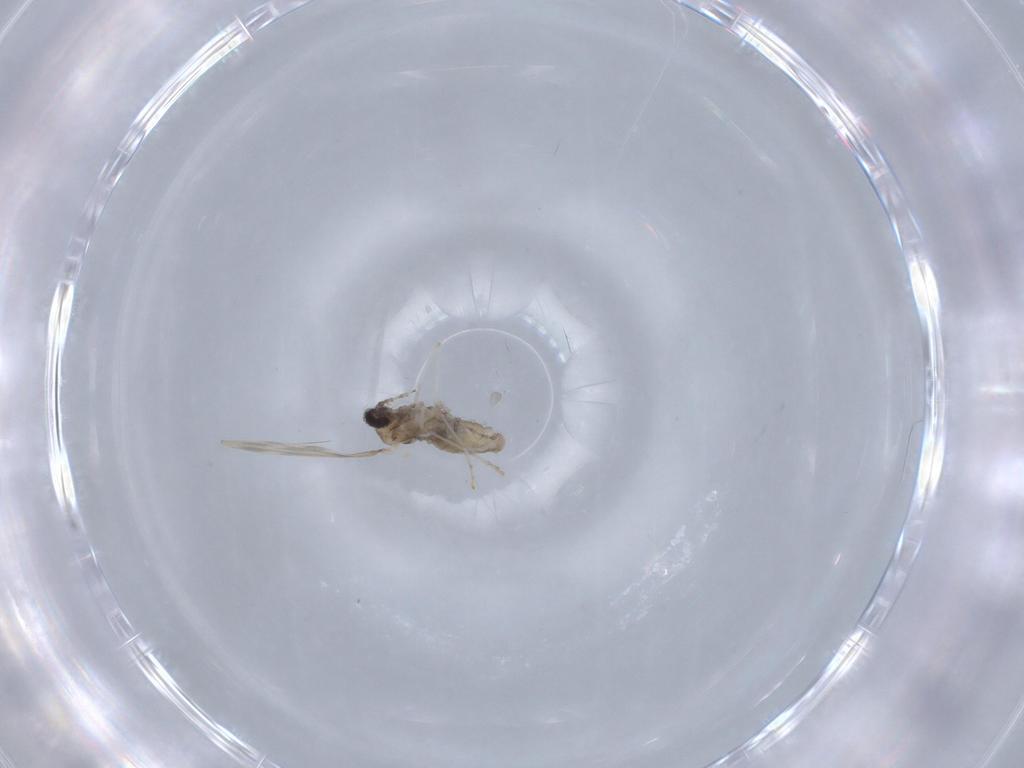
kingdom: Animalia
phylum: Arthropoda
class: Insecta
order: Diptera
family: Cecidomyiidae
